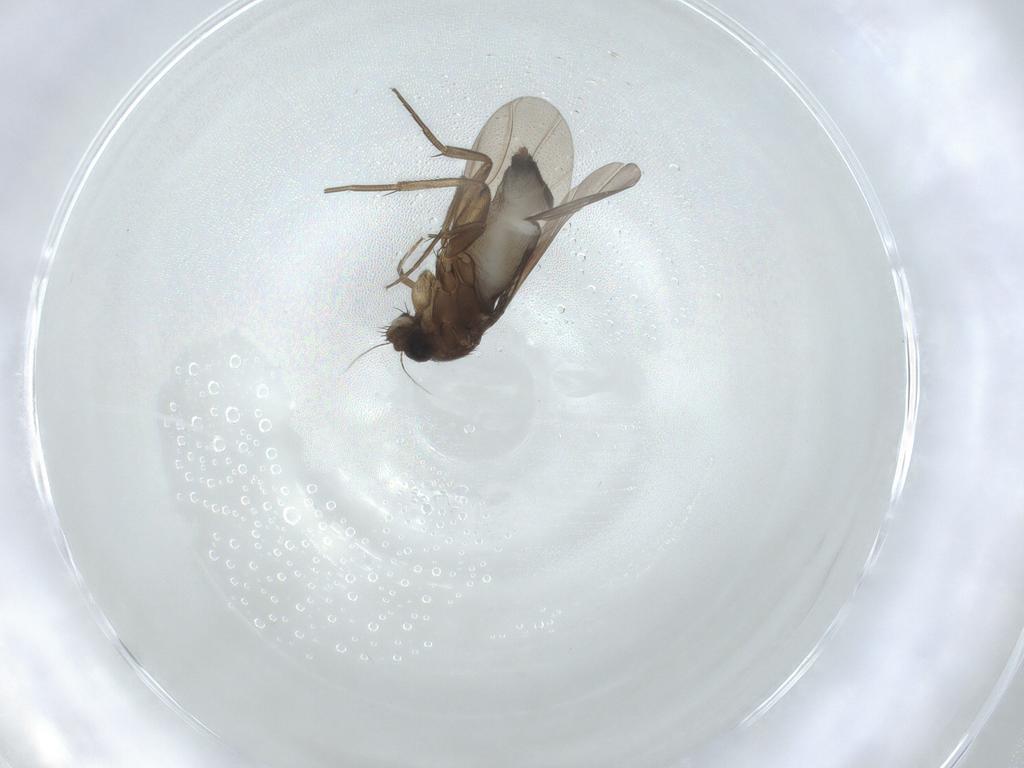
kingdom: Animalia
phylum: Arthropoda
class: Insecta
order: Diptera
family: Phoridae
